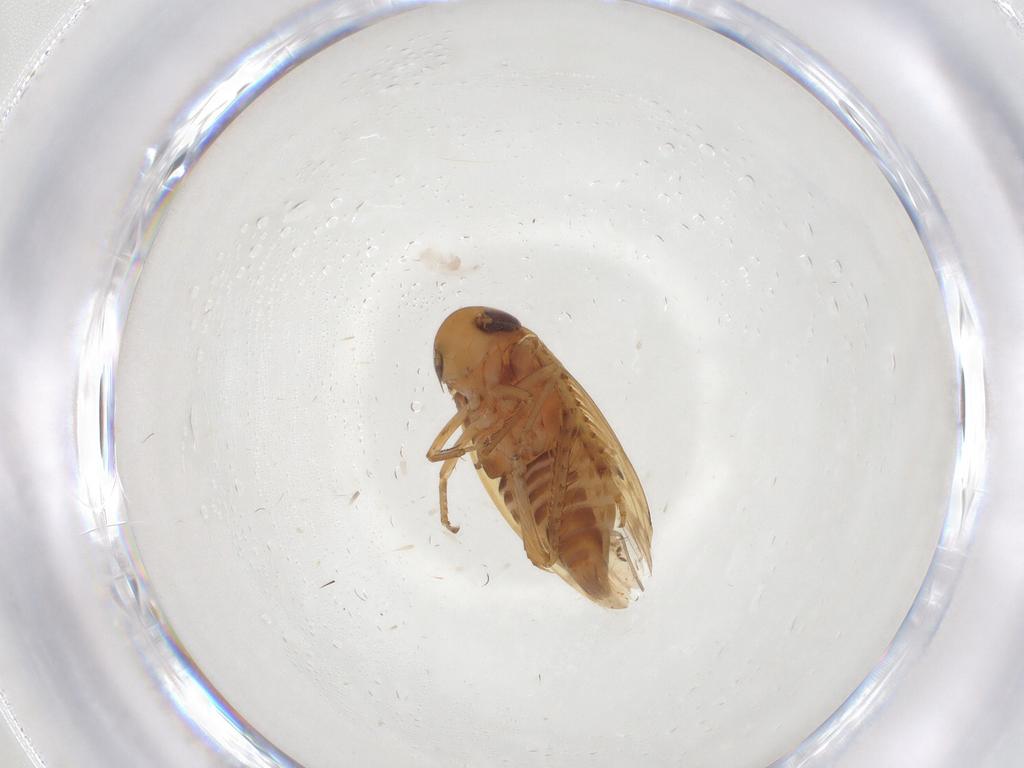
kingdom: Animalia
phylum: Arthropoda
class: Insecta
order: Hemiptera
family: Cicadellidae
